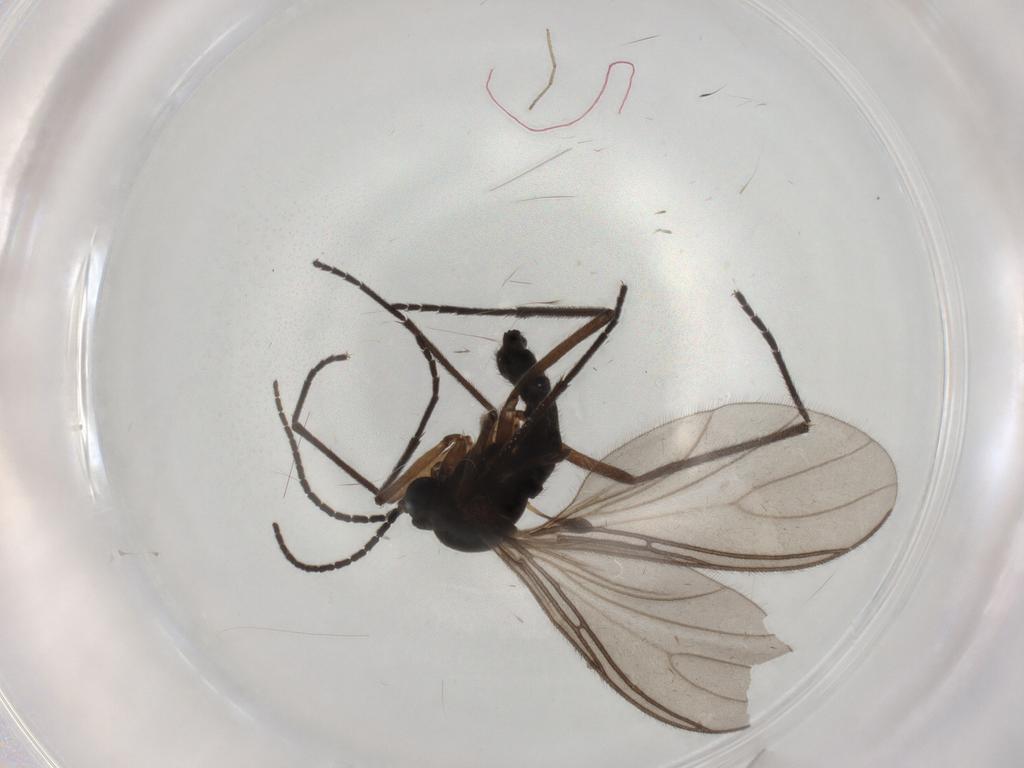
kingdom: Animalia
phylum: Arthropoda
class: Insecta
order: Diptera
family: Sciaridae
